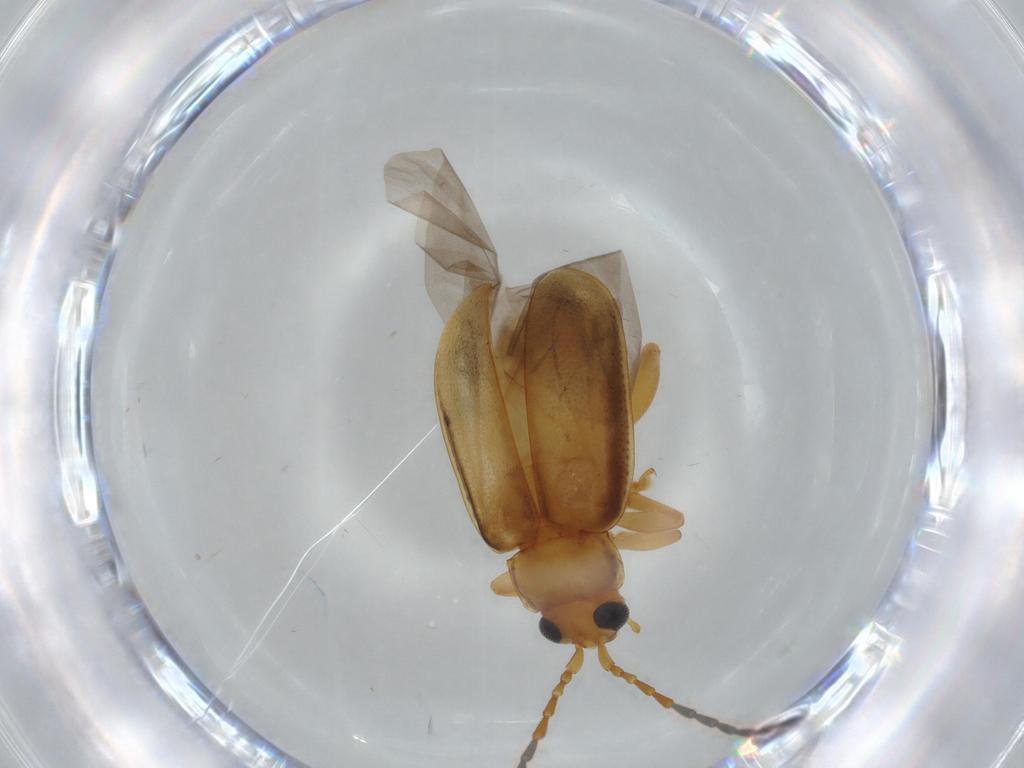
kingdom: Animalia
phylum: Arthropoda
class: Insecta
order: Coleoptera
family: Chrysomelidae
